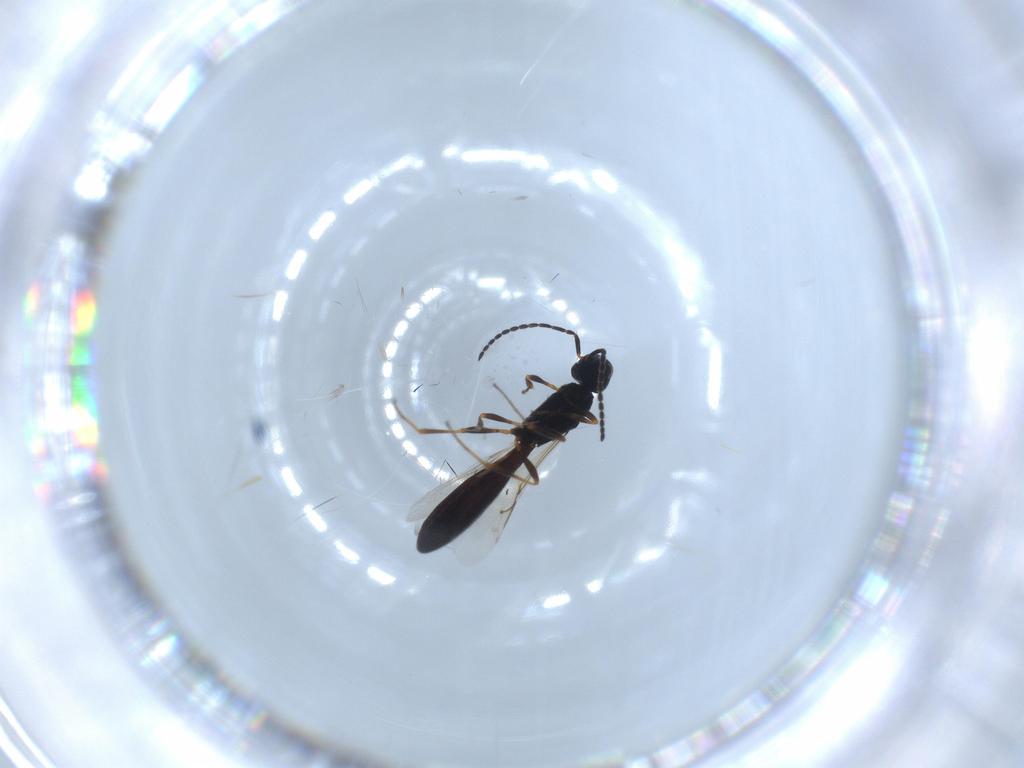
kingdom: Animalia
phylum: Arthropoda
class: Insecta
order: Hymenoptera
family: Scelionidae
